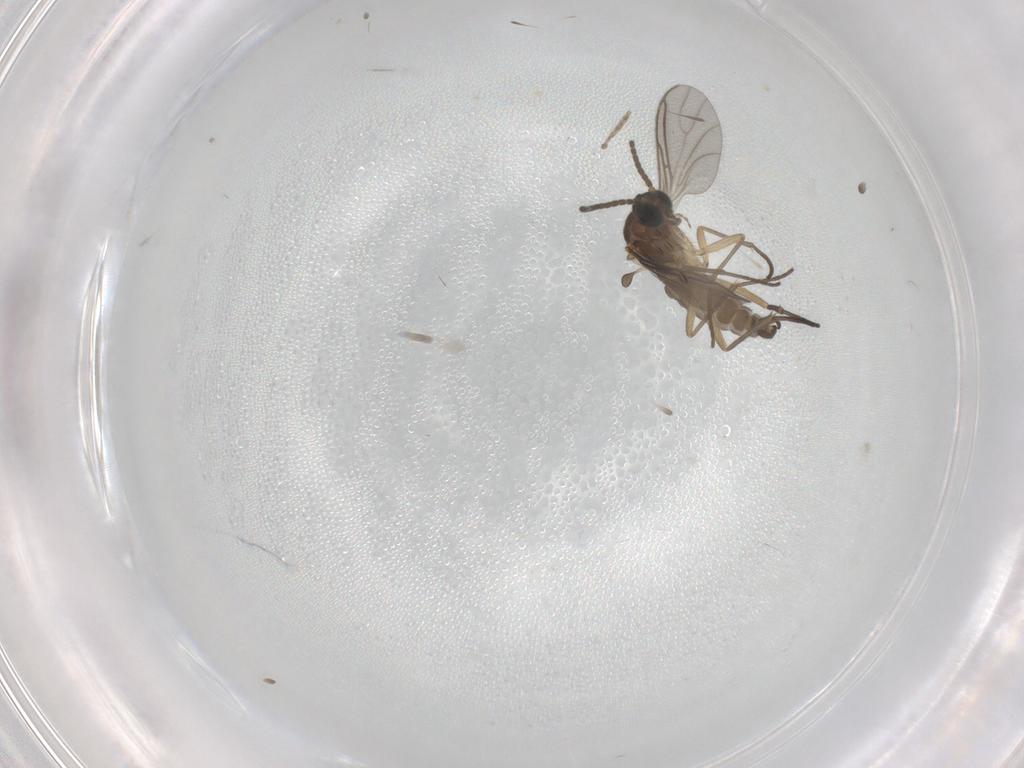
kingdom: Animalia
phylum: Arthropoda
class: Insecta
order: Diptera
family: Sciaridae
